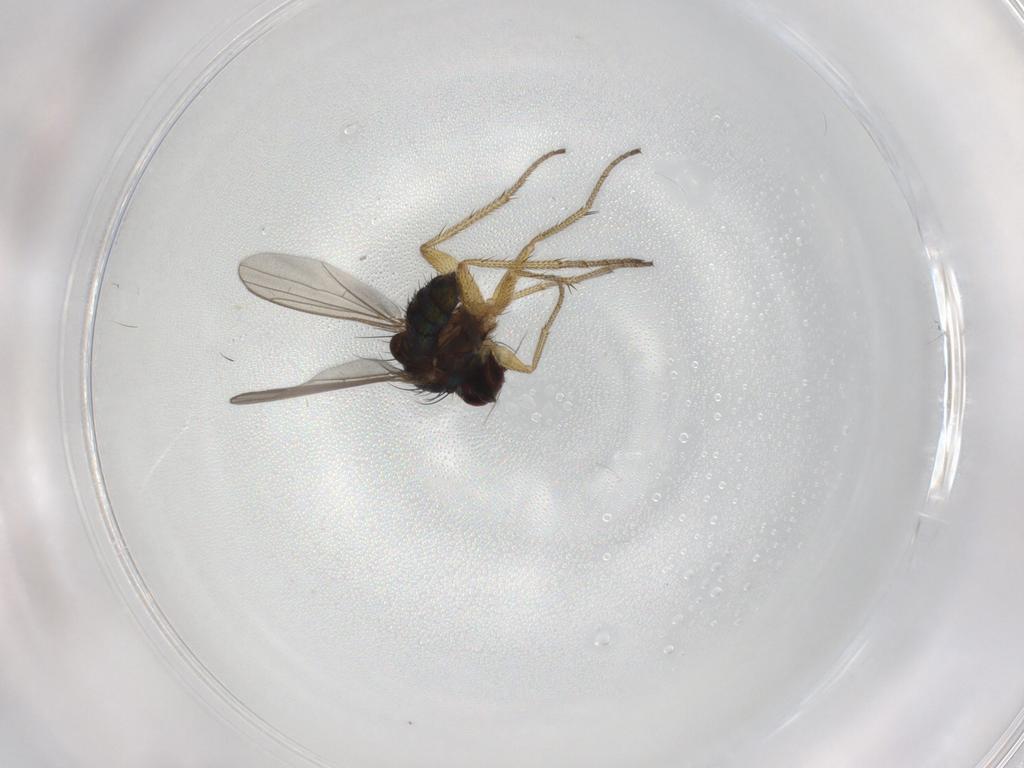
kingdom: Animalia
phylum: Arthropoda
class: Insecta
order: Diptera
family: Ceratopogonidae
